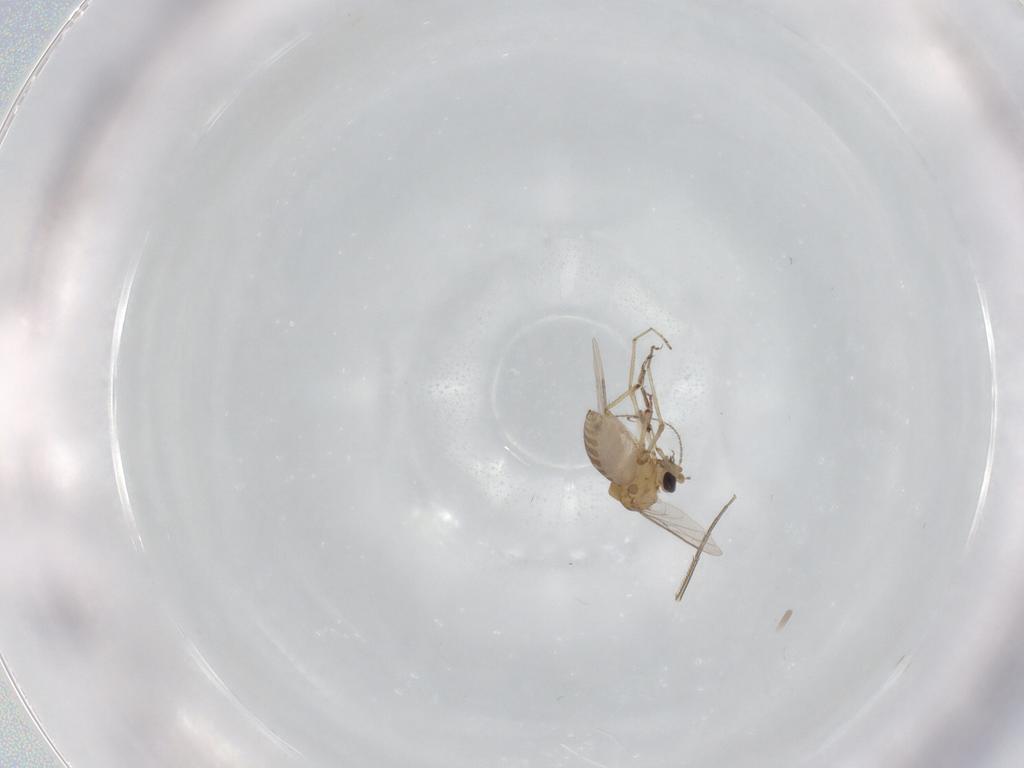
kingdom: Animalia
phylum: Arthropoda
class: Insecta
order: Diptera
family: Ceratopogonidae
